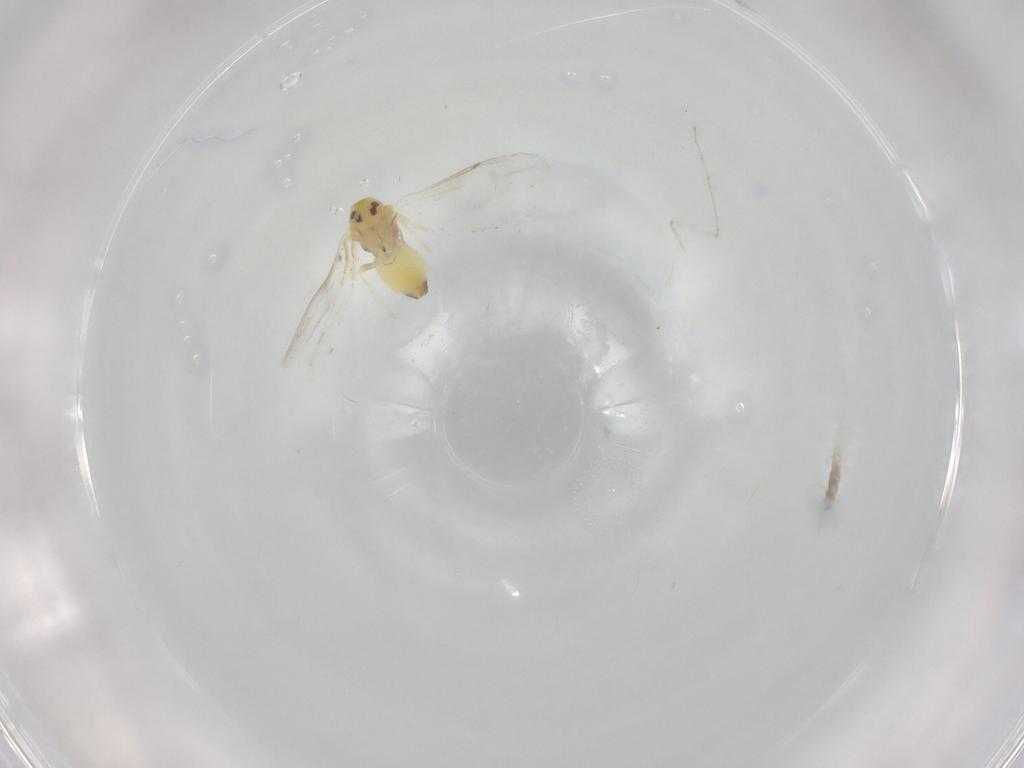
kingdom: Animalia
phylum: Arthropoda
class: Insecta
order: Hemiptera
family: Aleyrodidae
